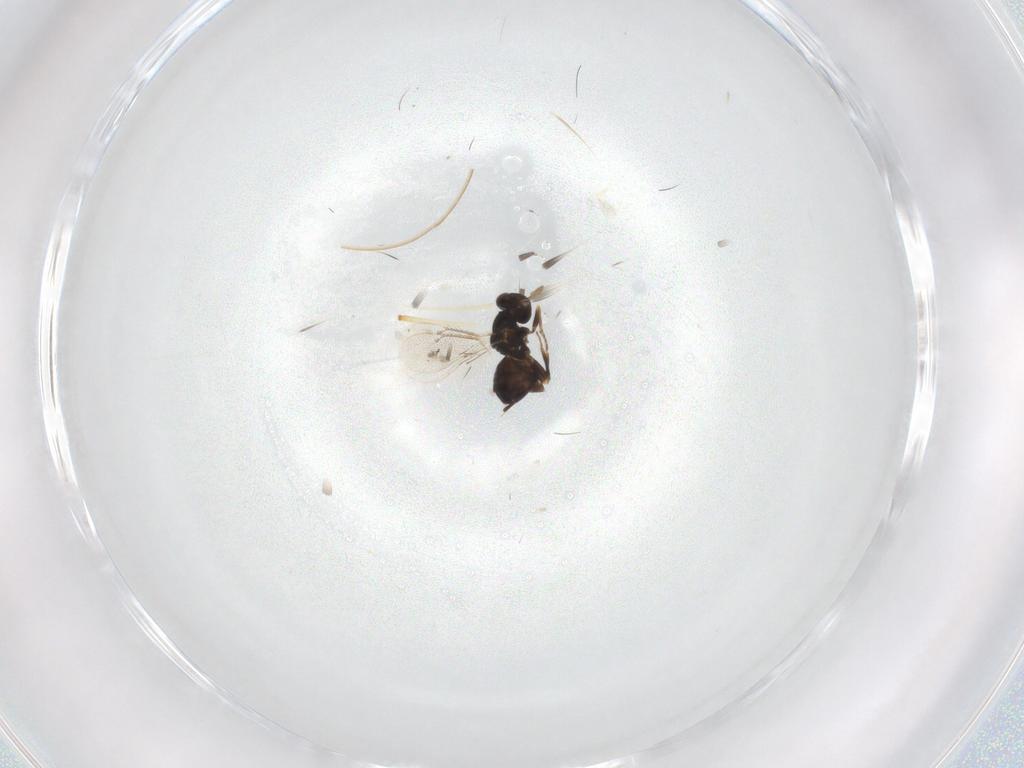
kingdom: Animalia
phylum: Arthropoda
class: Insecta
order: Hymenoptera
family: Eulophidae
